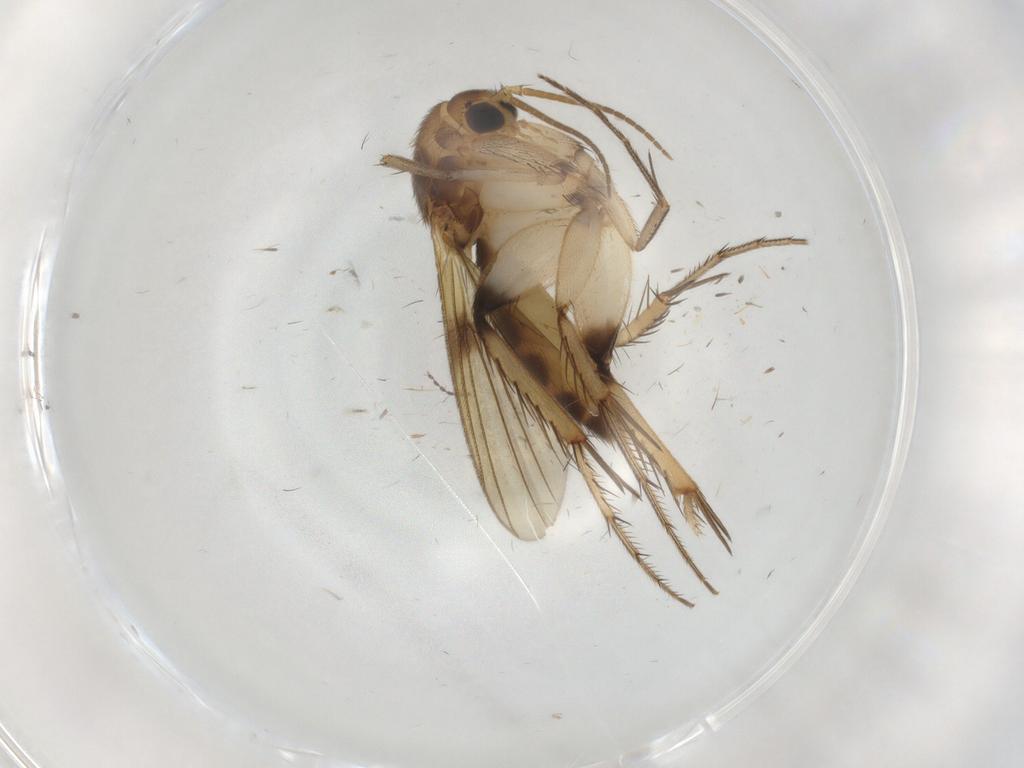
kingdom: Animalia
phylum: Arthropoda
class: Insecta
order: Diptera
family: Mycetophilidae
